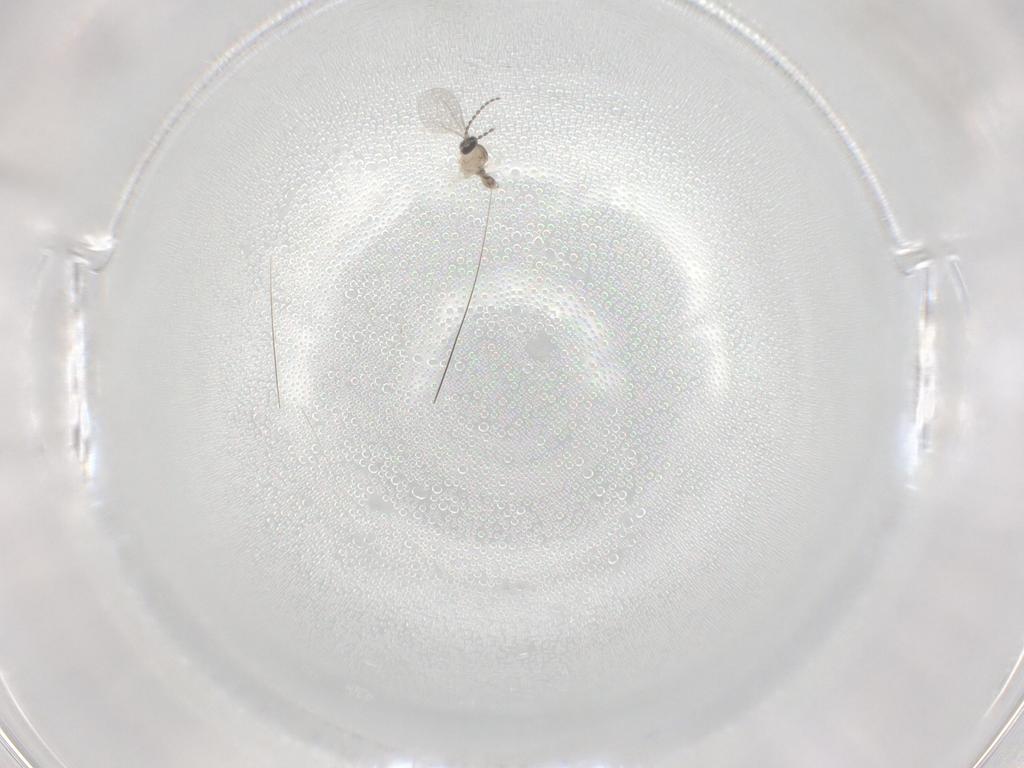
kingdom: Animalia
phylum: Arthropoda
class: Insecta
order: Diptera
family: Cecidomyiidae
